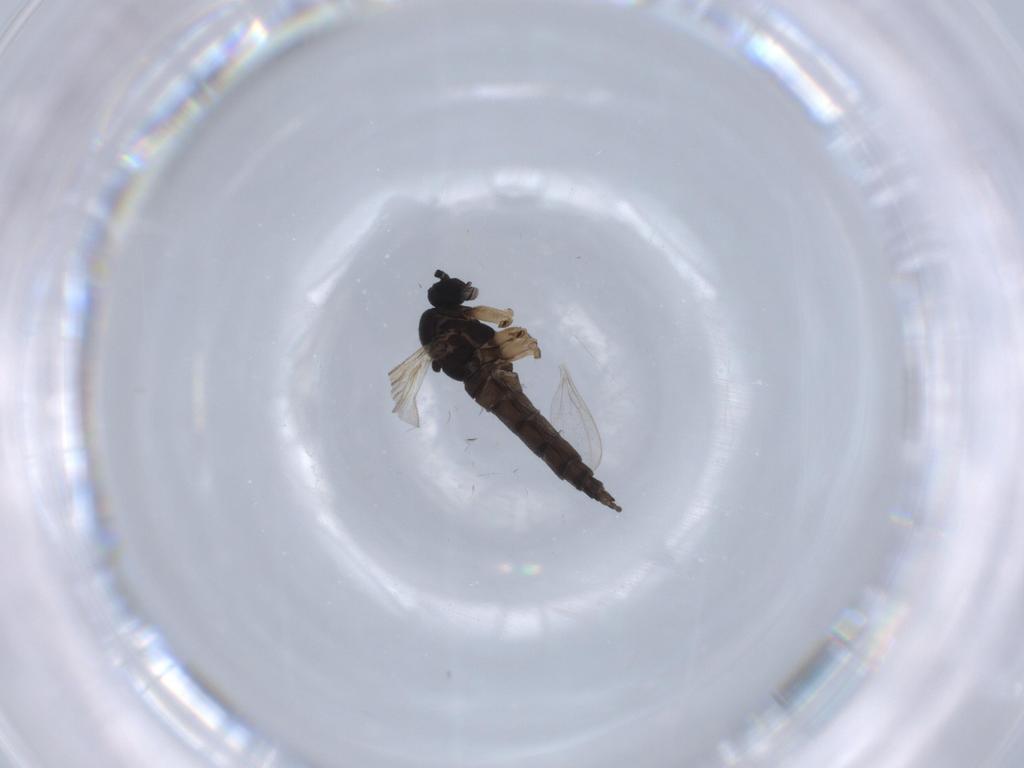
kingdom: Animalia
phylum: Arthropoda
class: Insecta
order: Diptera
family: Sciaridae
